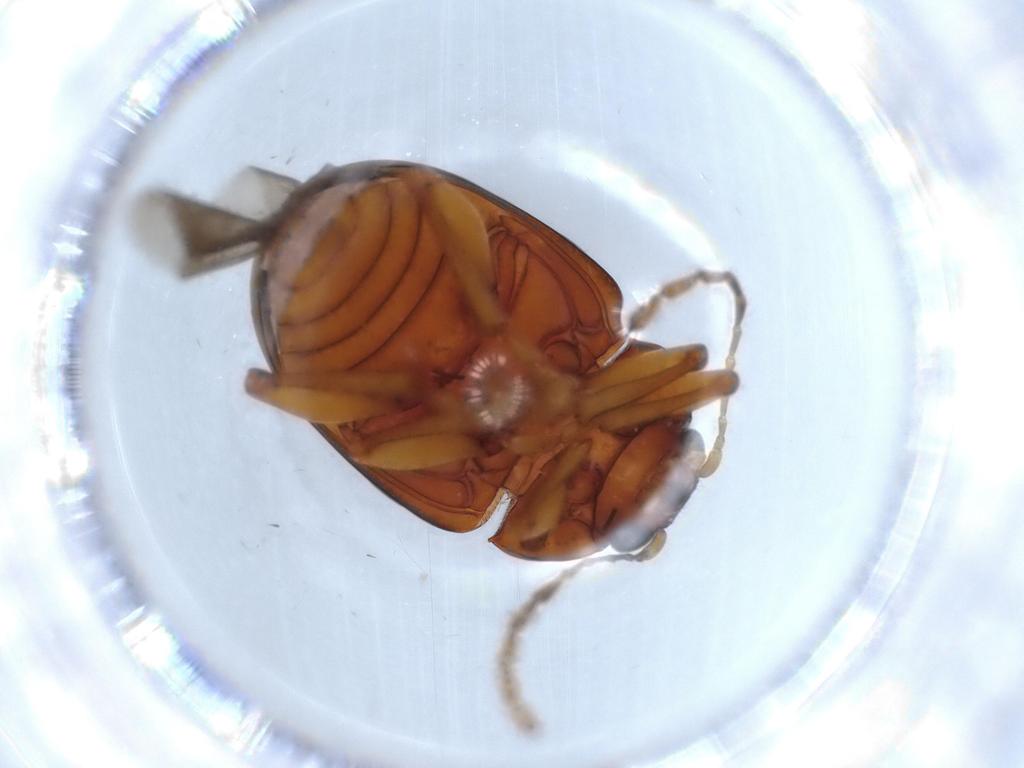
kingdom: Animalia
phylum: Arthropoda
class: Insecta
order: Coleoptera
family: Chrysomelidae
